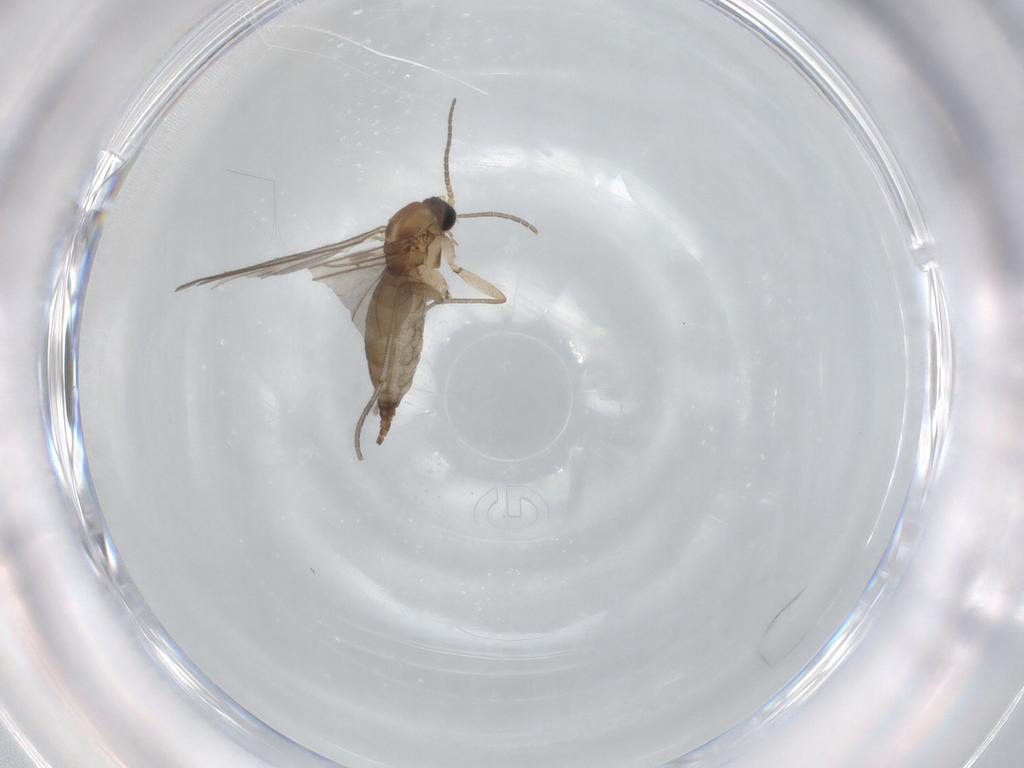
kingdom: Animalia
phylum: Arthropoda
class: Insecta
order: Diptera
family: Sciaridae
